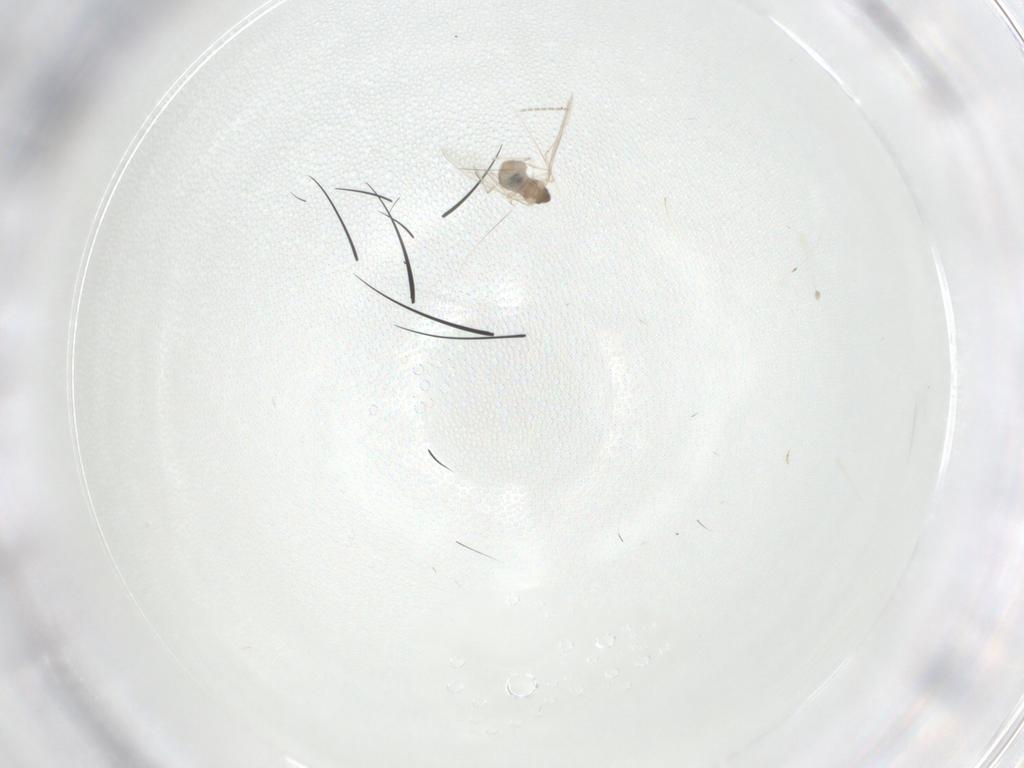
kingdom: Animalia
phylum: Arthropoda
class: Insecta
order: Diptera
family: Cecidomyiidae
